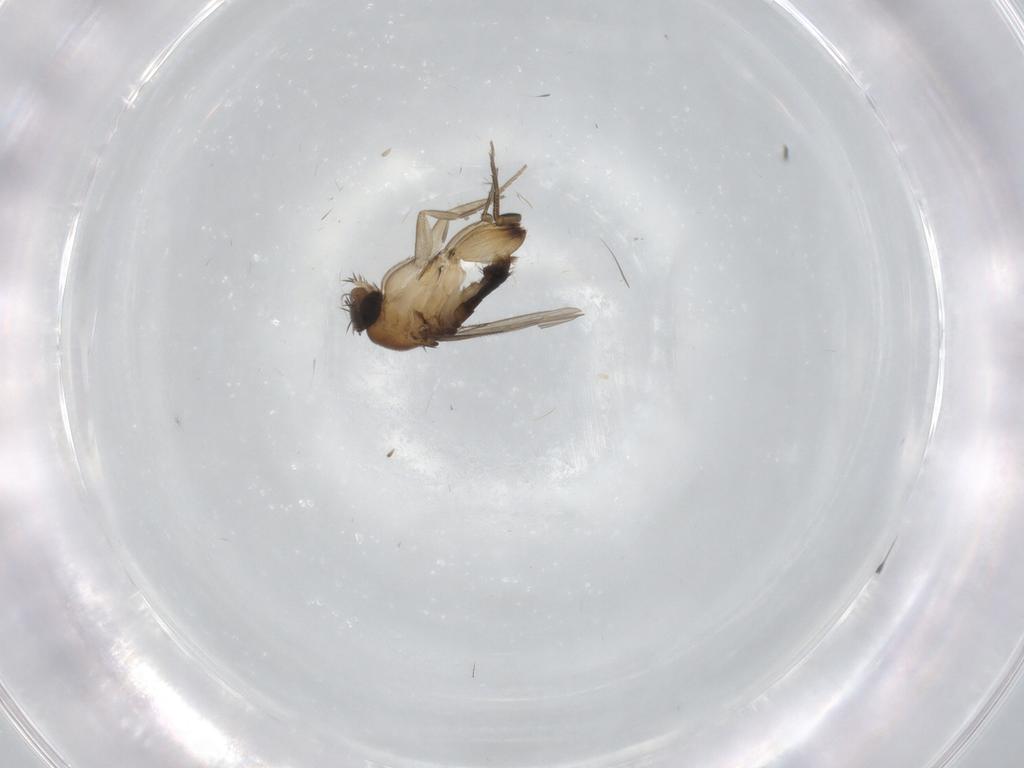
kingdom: Animalia
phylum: Arthropoda
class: Insecta
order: Diptera
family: Phoridae
